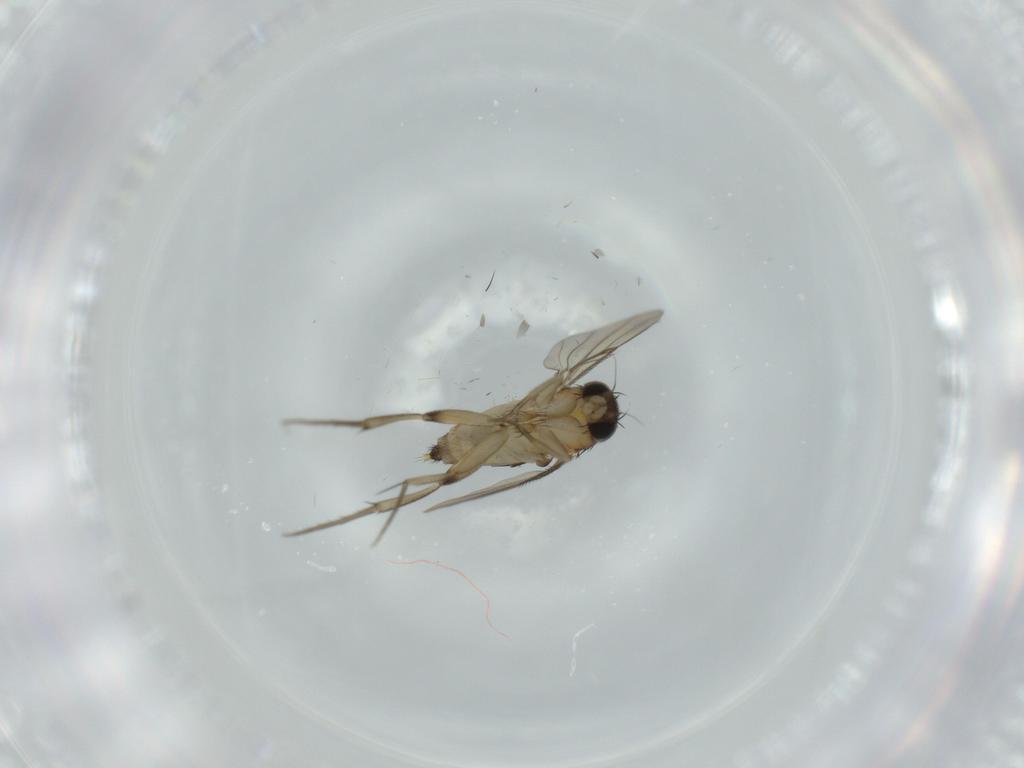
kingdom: Animalia
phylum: Arthropoda
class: Insecta
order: Diptera
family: Phoridae
